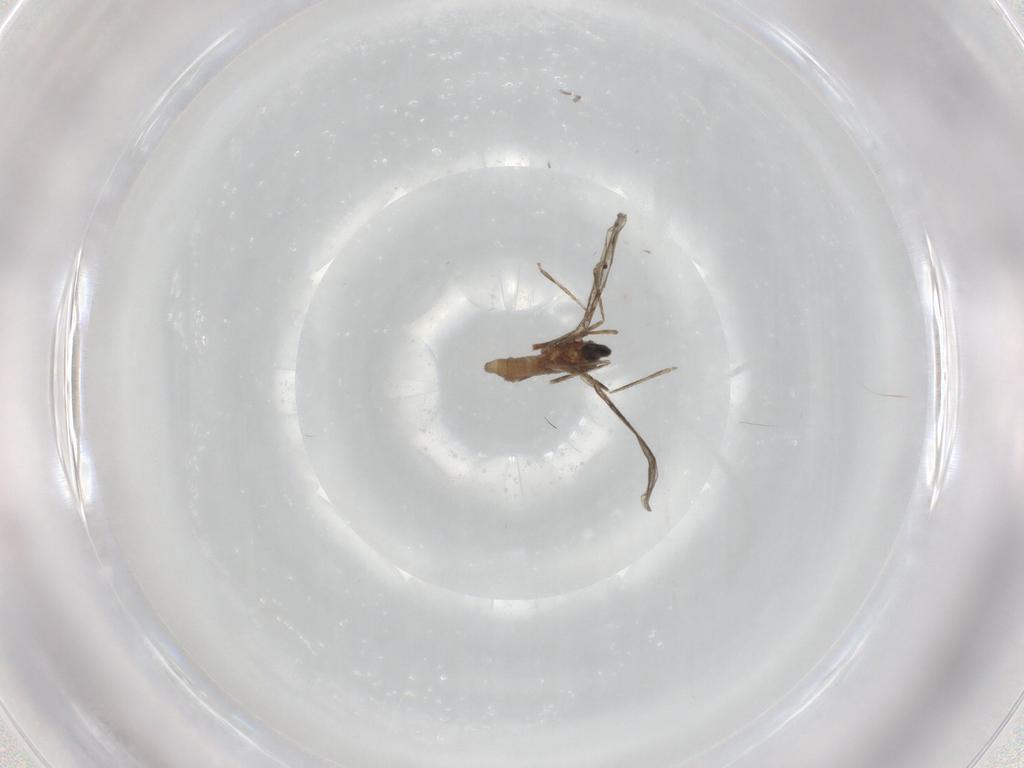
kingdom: Animalia
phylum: Arthropoda
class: Insecta
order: Diptera
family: Cecidomyiidae
